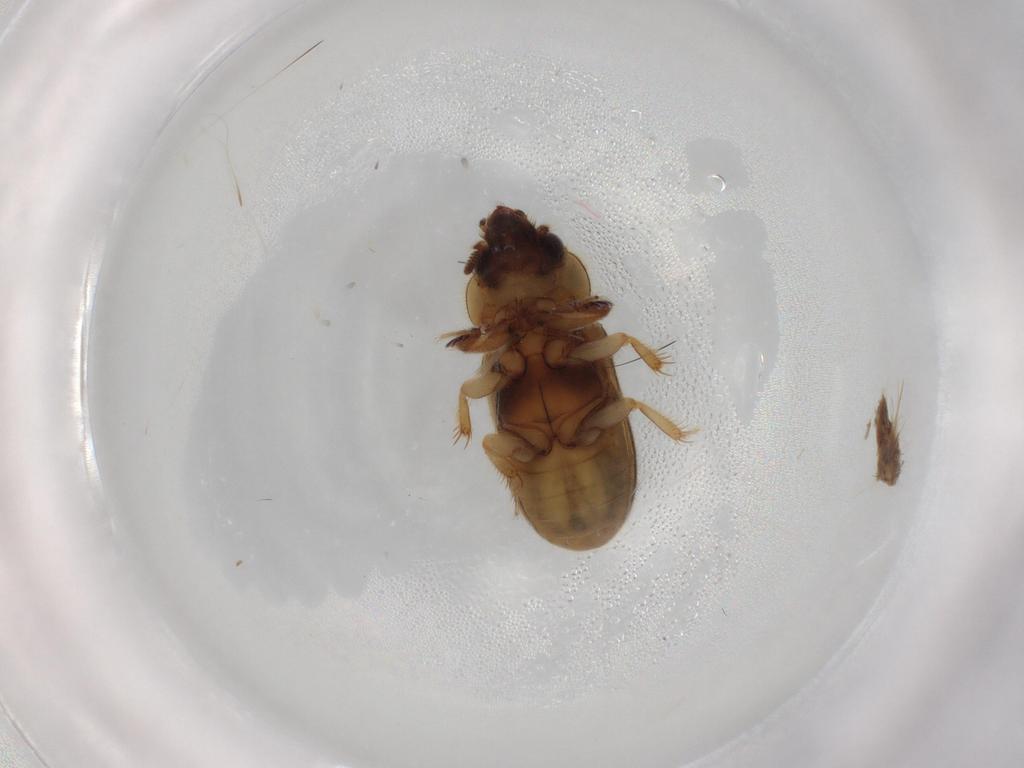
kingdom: Animalia
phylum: Arthropoda
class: Insecta
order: Coleoptera
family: Heteroceridae
